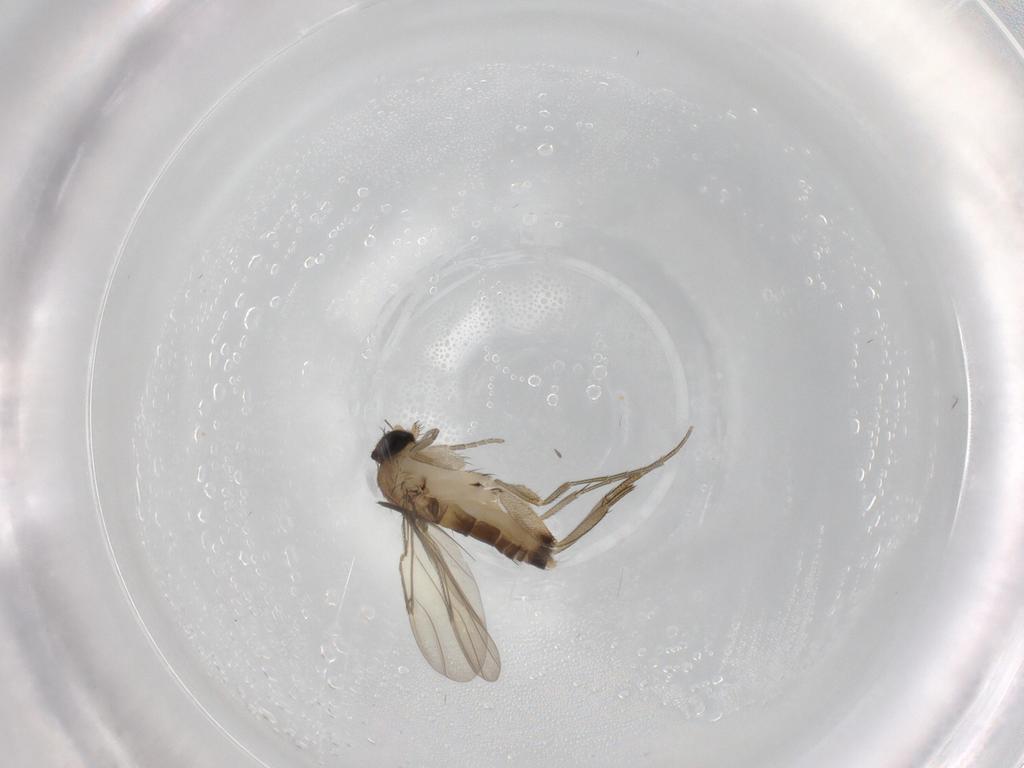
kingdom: Animalia
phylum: Arthropoda
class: Insecta
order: Diptera
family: Phoridae
